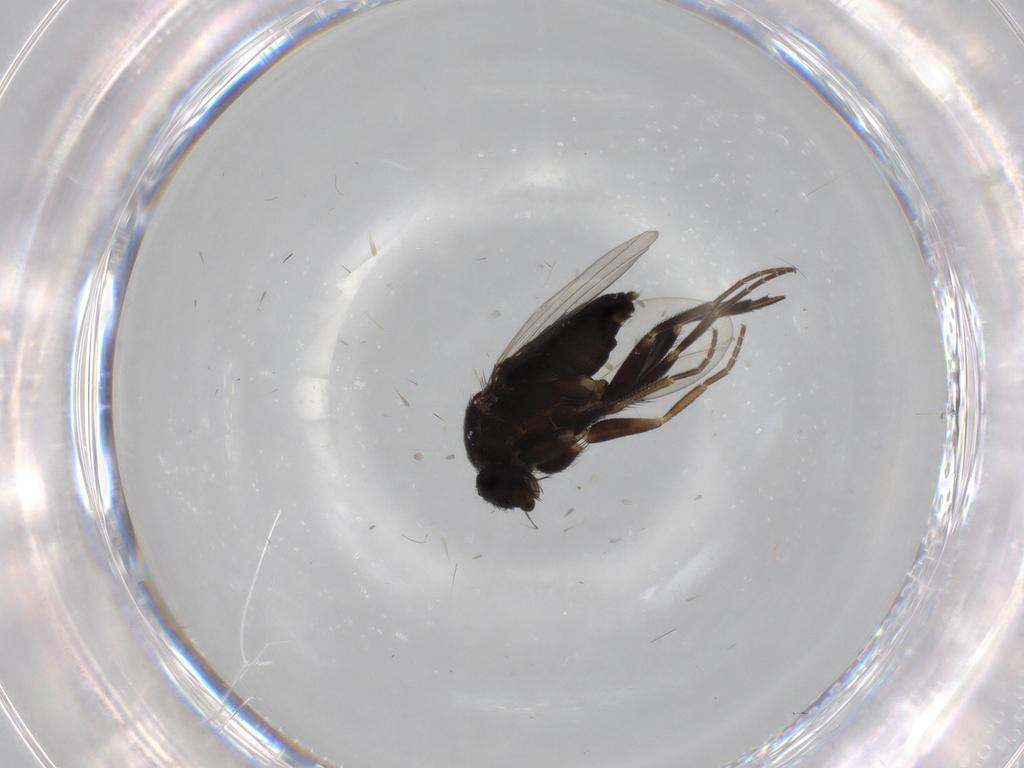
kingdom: Animalia
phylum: Arthropoda
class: Insecta
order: Diptera
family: Phoridae
